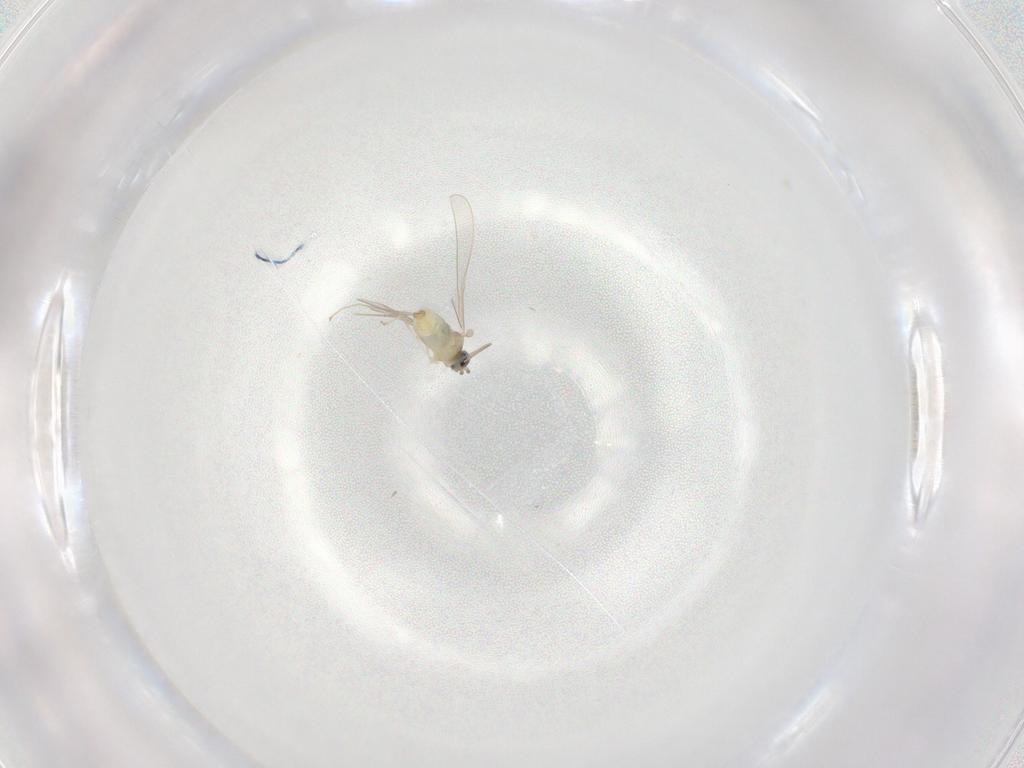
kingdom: Animalia
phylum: Arthropoda
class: Insecta
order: Diptera
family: Cecidomyiidae
